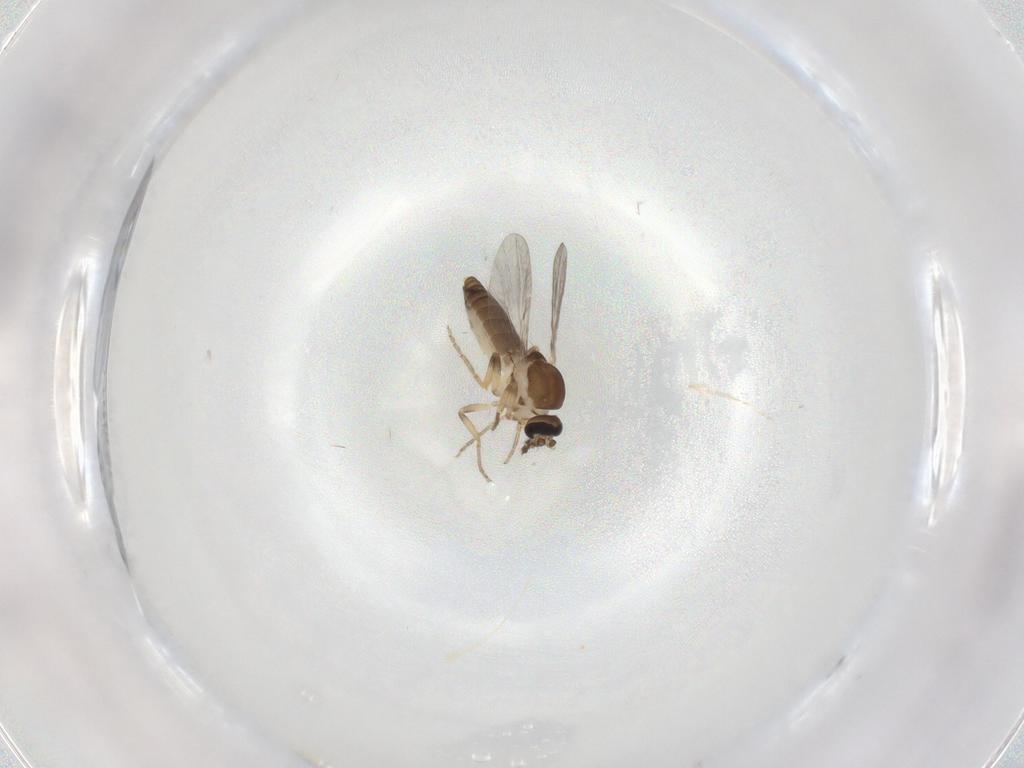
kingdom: Animalia
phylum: Arthropoda
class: Insecta
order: Diptera
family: Ceratopogonidae
